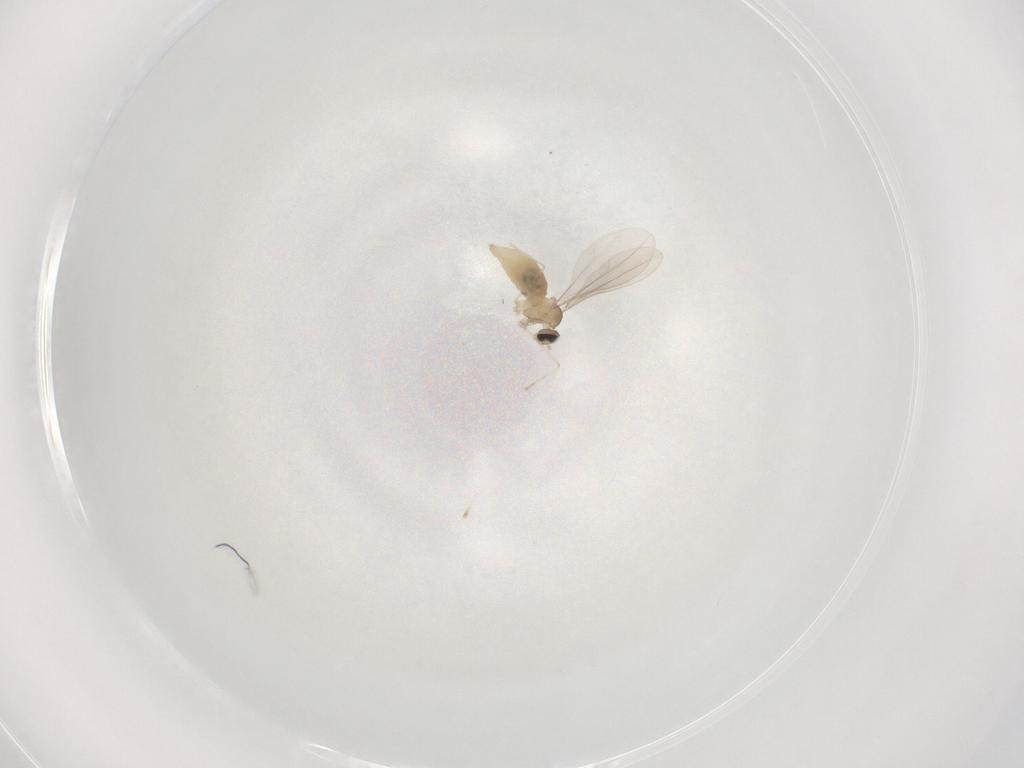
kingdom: Animalia
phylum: Arthropoda
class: Insecta
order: Diptera
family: Cecidomyiidae
